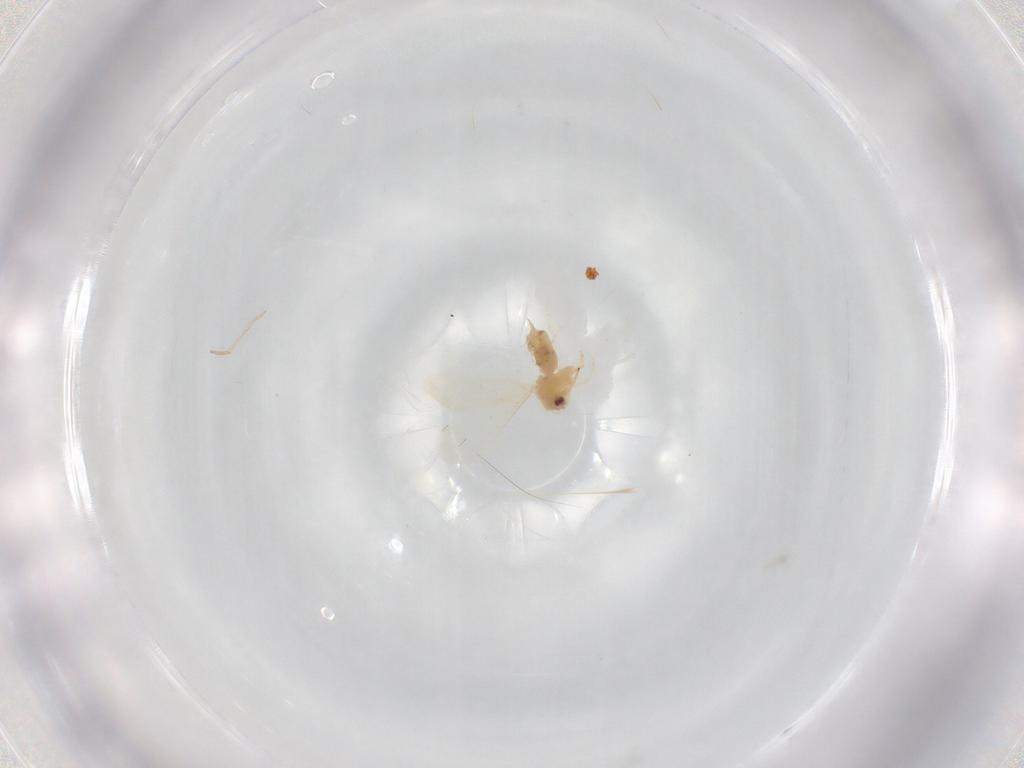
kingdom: Animalia
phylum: Arthropoda
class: Insecta
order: Hemiptera
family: Aleyrodidae
